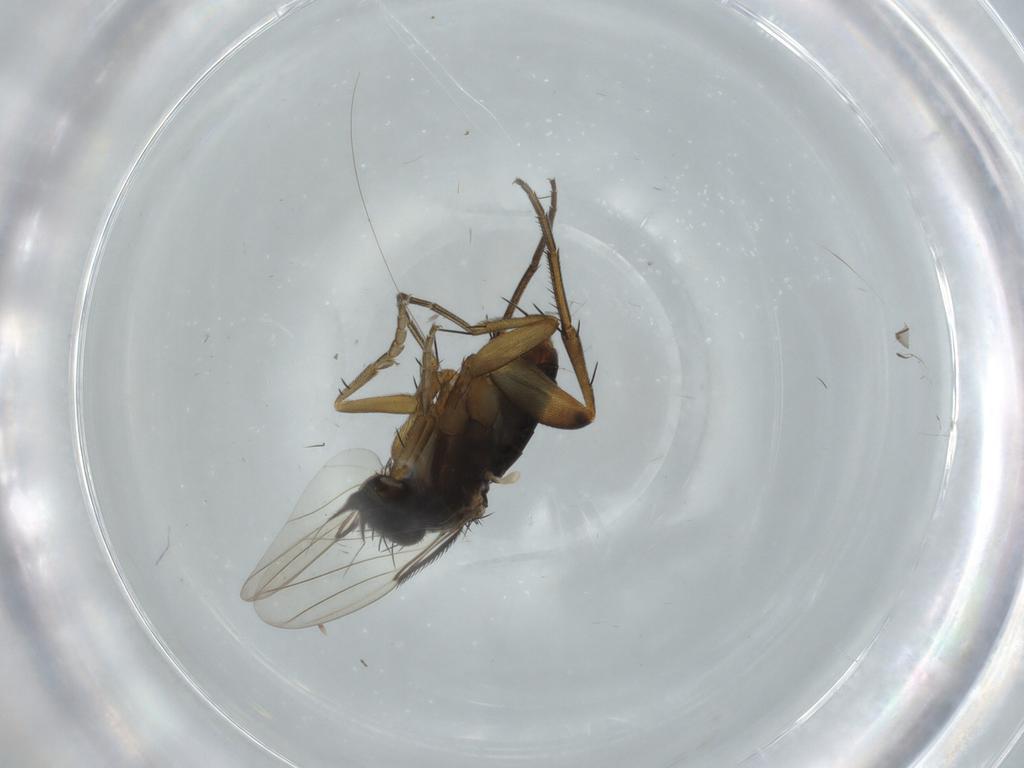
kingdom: Animalia
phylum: Arthropoda
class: Insecta
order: Diptera
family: Phoridae
